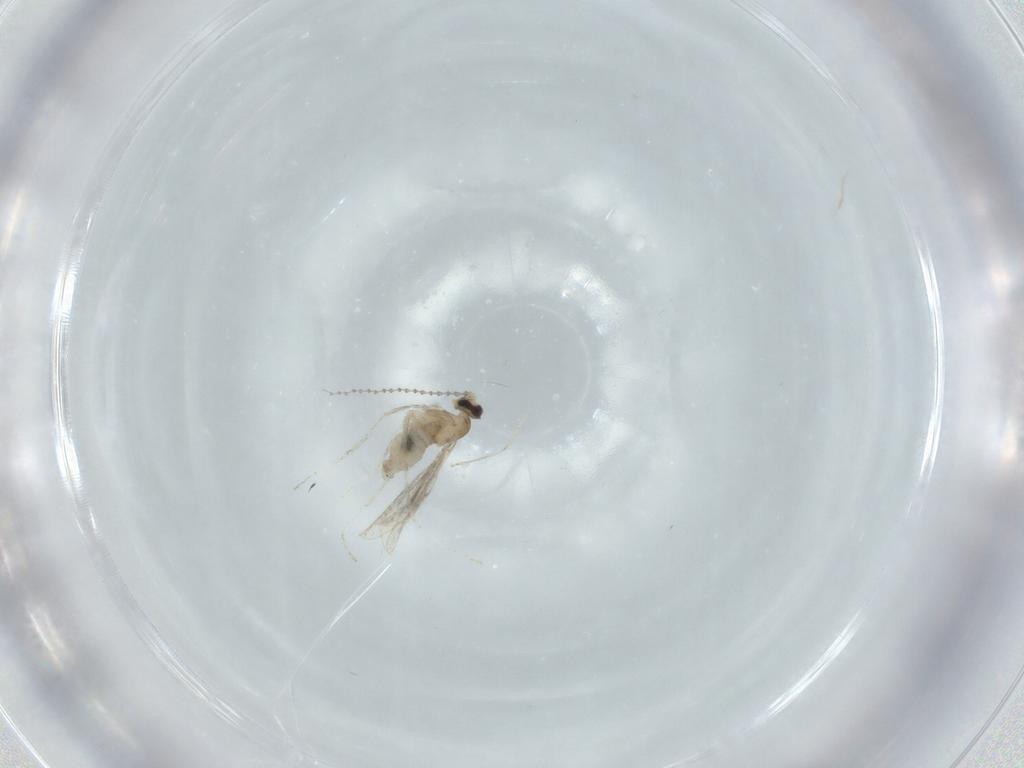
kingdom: Animalia
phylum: Arthropoda
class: Insecta
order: Diptera
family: Cecidomyiidae
